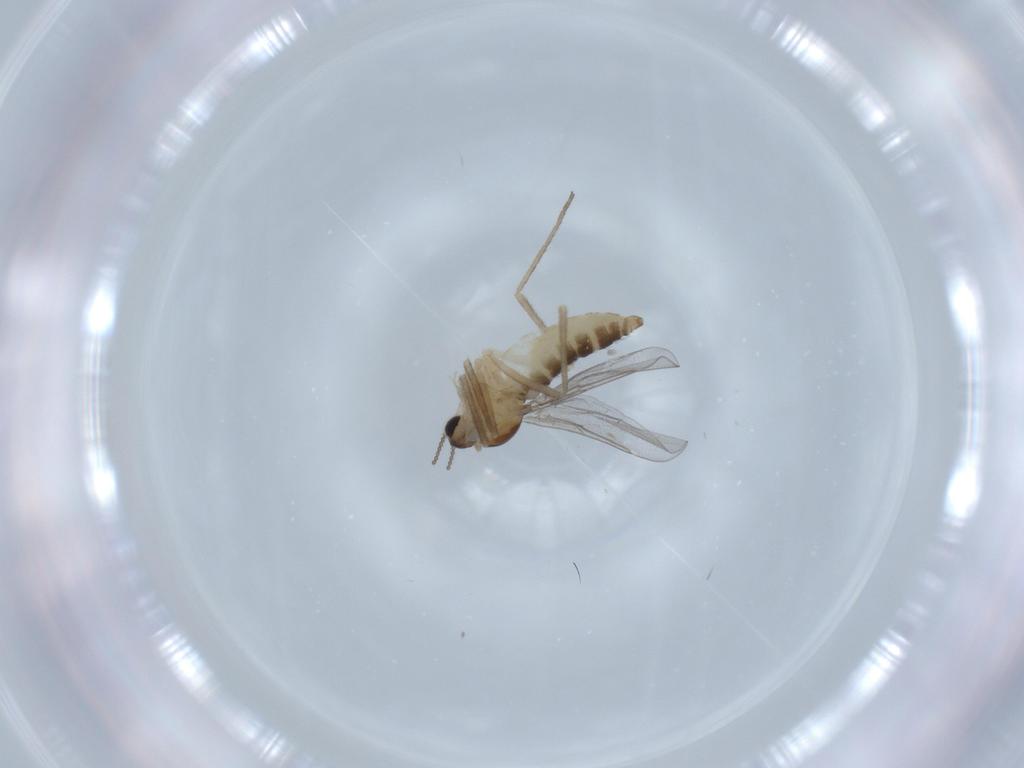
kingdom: Animalia
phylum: Arthropoda
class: Insecta
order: Diptera
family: Cecidomyiidae
